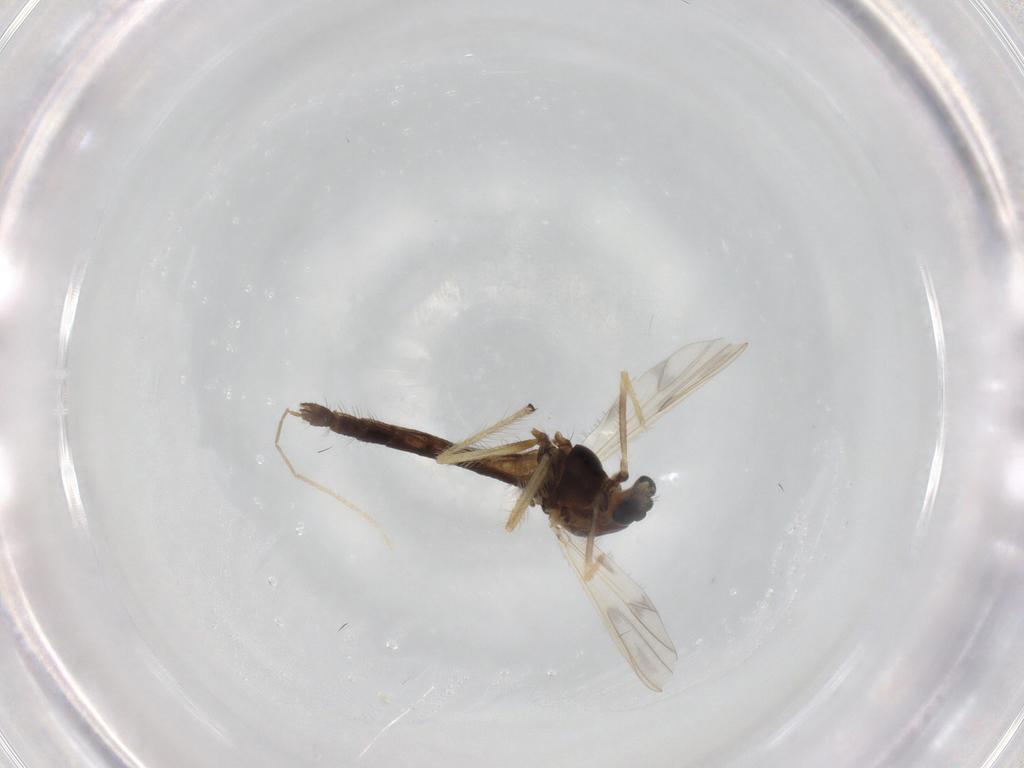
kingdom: Animalia
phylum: Arthropoda
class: Insecta
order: Diptera
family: Chironomidae
